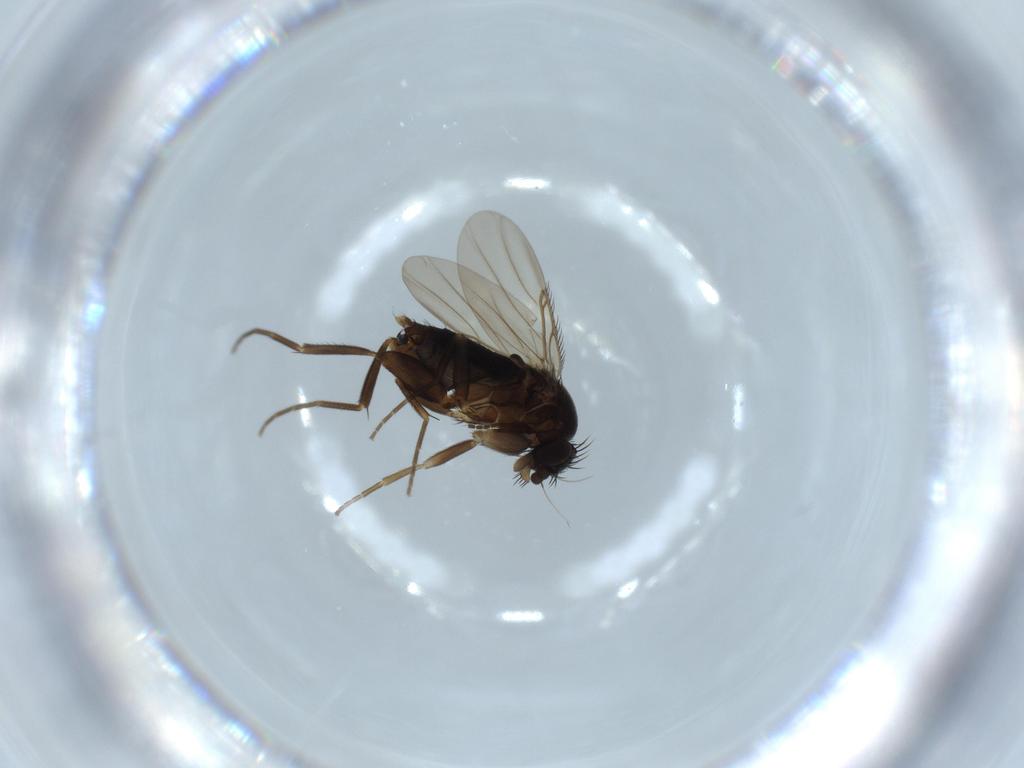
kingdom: Animalia
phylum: Arthropoda
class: Insecta
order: Diptera
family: Phoridae
